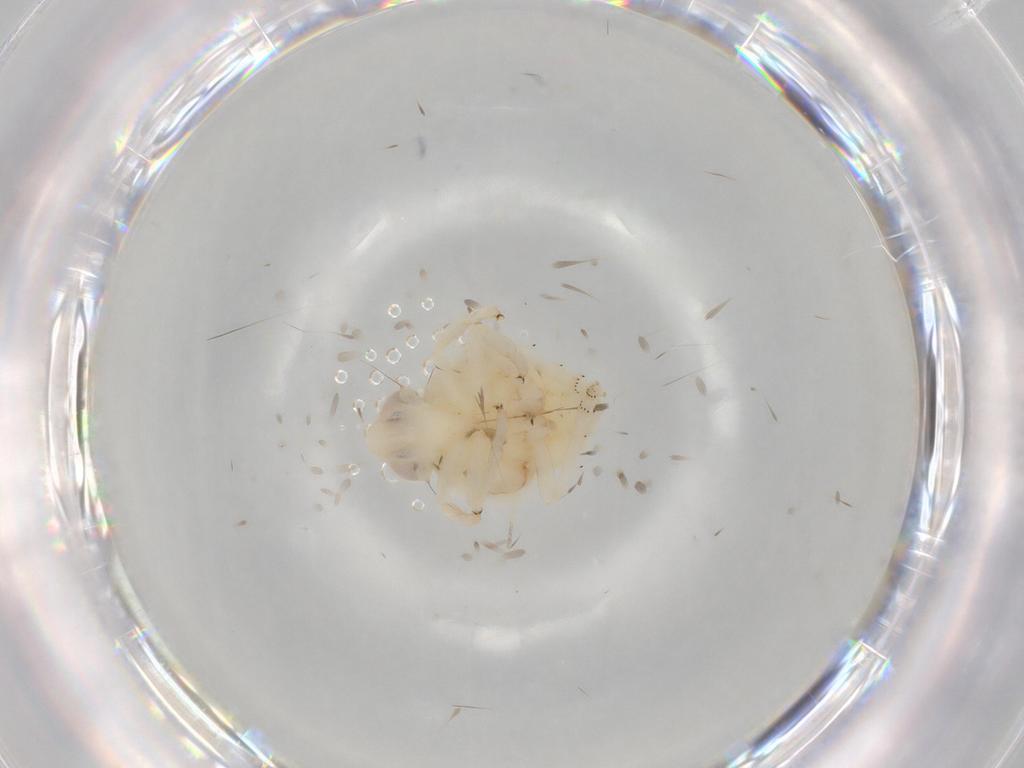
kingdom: Animalia
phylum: Arthropoda
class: Insecta
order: Hemiptera
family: Nogodinidae
